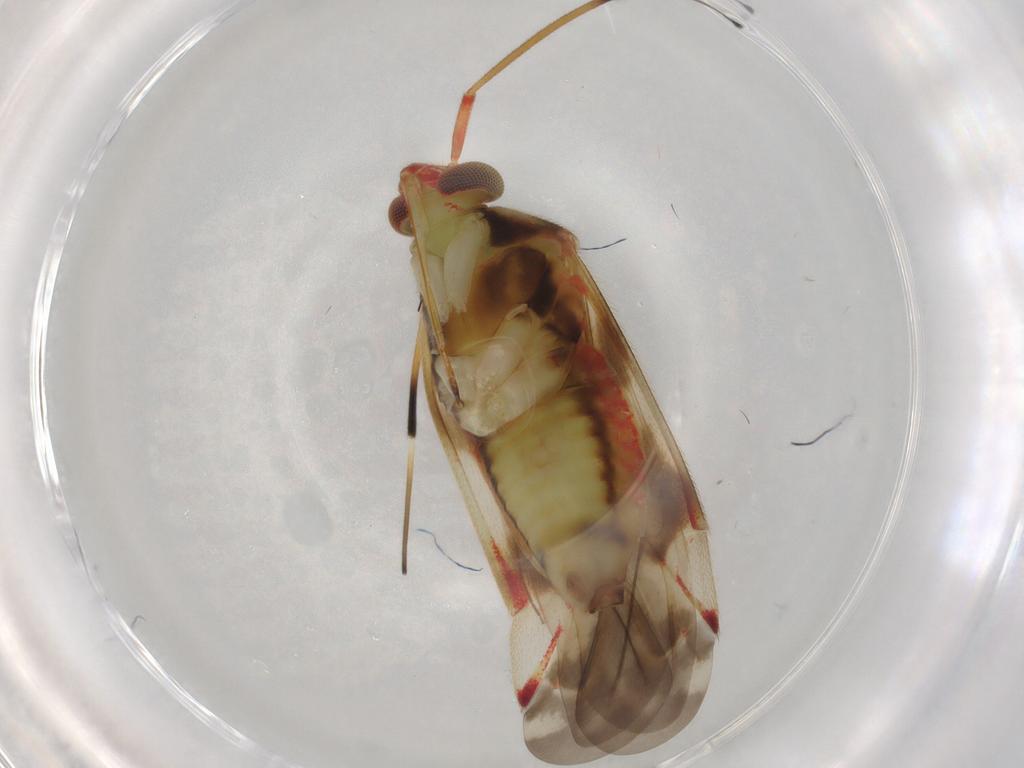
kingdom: Animalia
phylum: Arthropoda
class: Insecta
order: Hemiptera
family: Miridae
